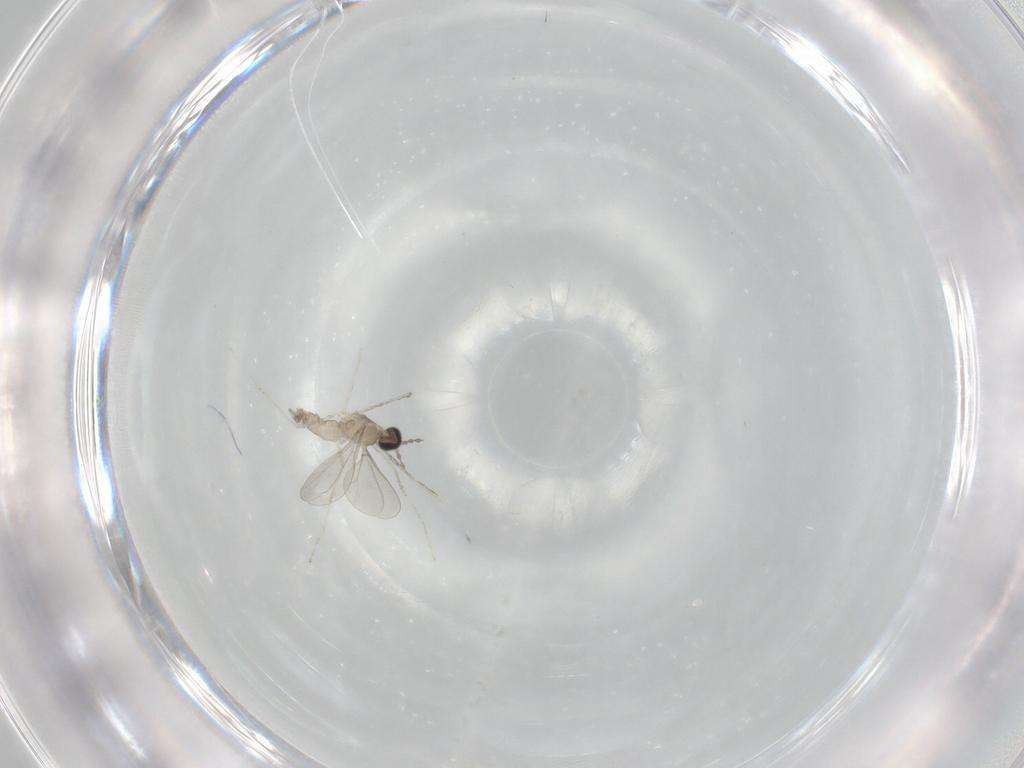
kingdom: Animalia
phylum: Arthropoda
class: Insecta
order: Diptera
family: Cecidomyiidae
